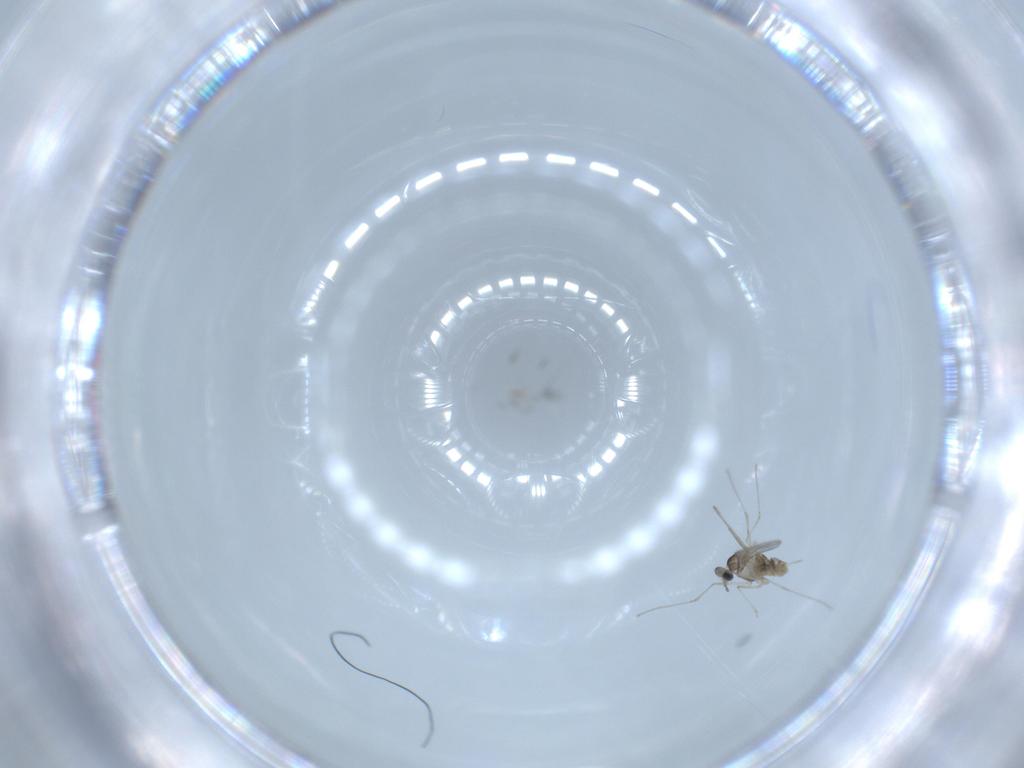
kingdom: Animalia
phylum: Arthropoda
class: Insecta
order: Diptera
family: Cecidomyiidae
